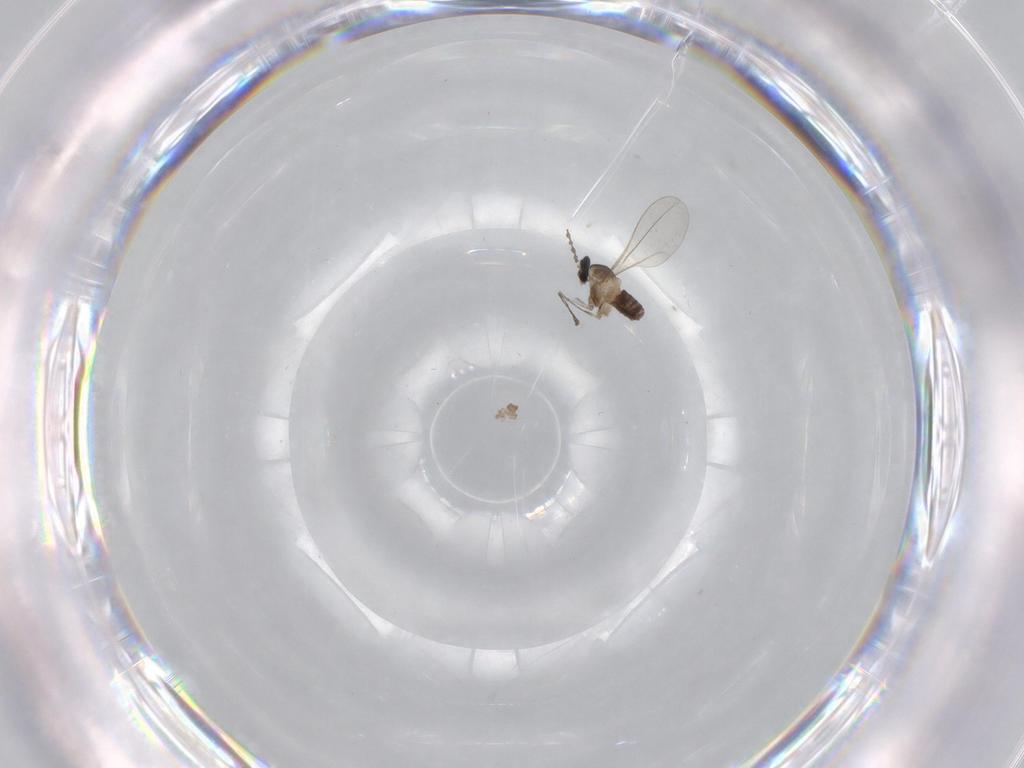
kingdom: Animalia
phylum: Arthropoda
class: Insecta
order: Diptera
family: Cecidomyiidae
